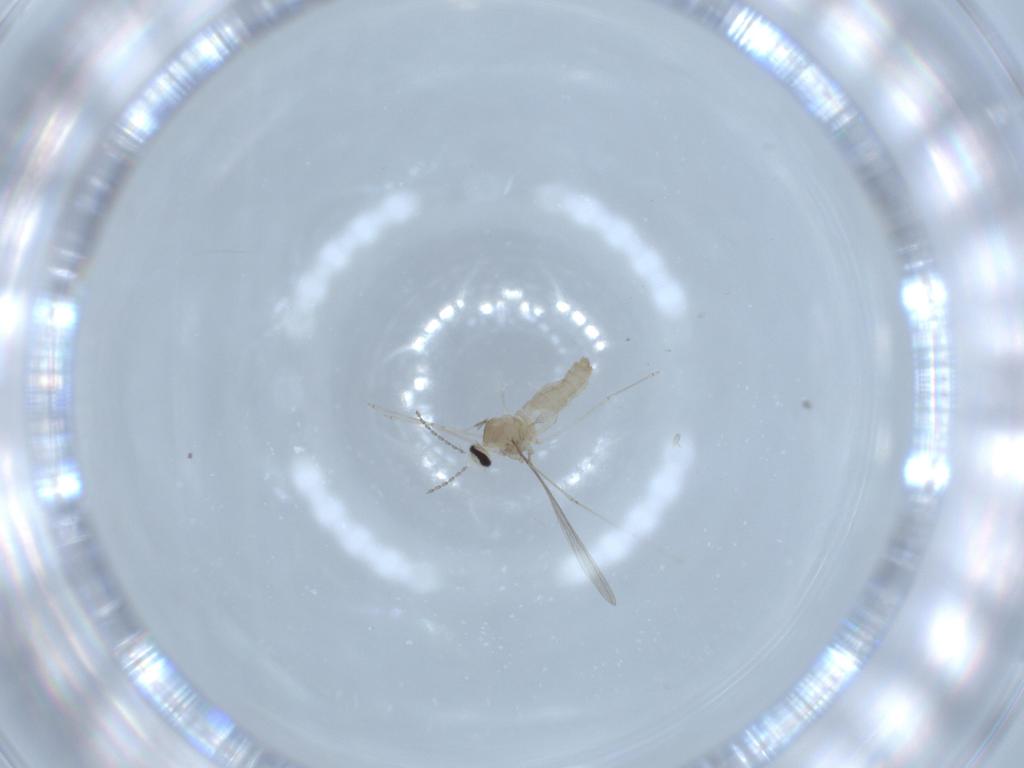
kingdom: Animalia
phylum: Arthropoda
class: Insecta
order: Diptera
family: Cecidomyiidae
